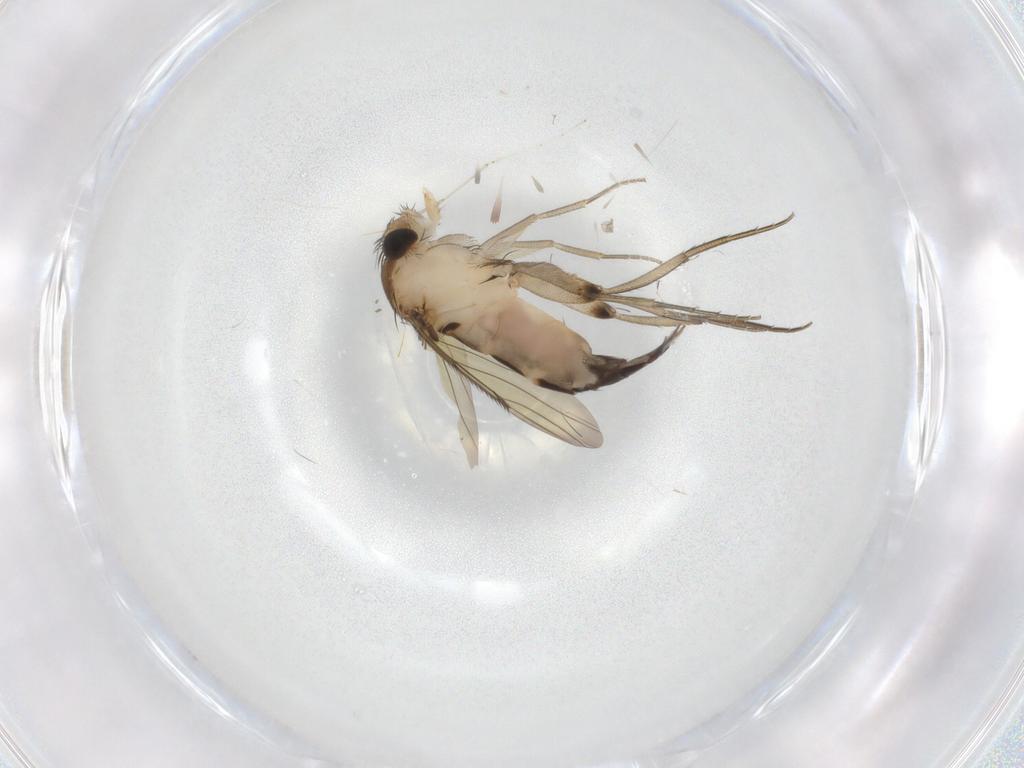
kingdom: Animalia
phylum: Arthropoda
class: Insecta
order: Diptera
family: Phoridae
